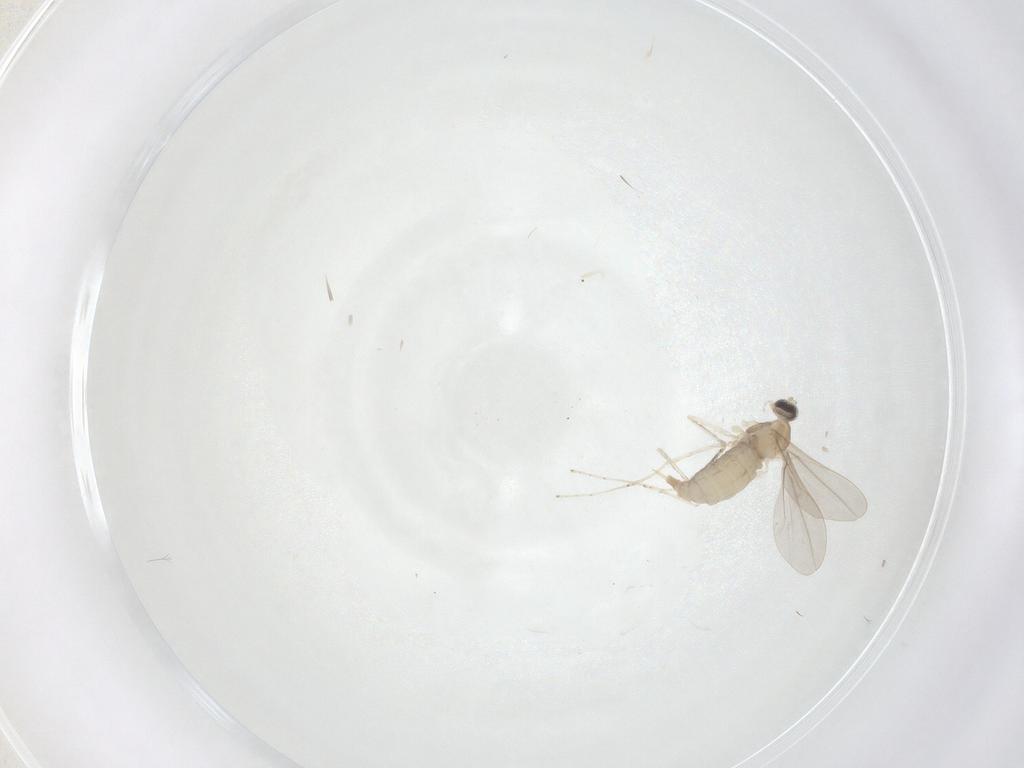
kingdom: Animalia
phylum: Arthropoda
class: Insecta
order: Diptera
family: Cecidomyiidae
